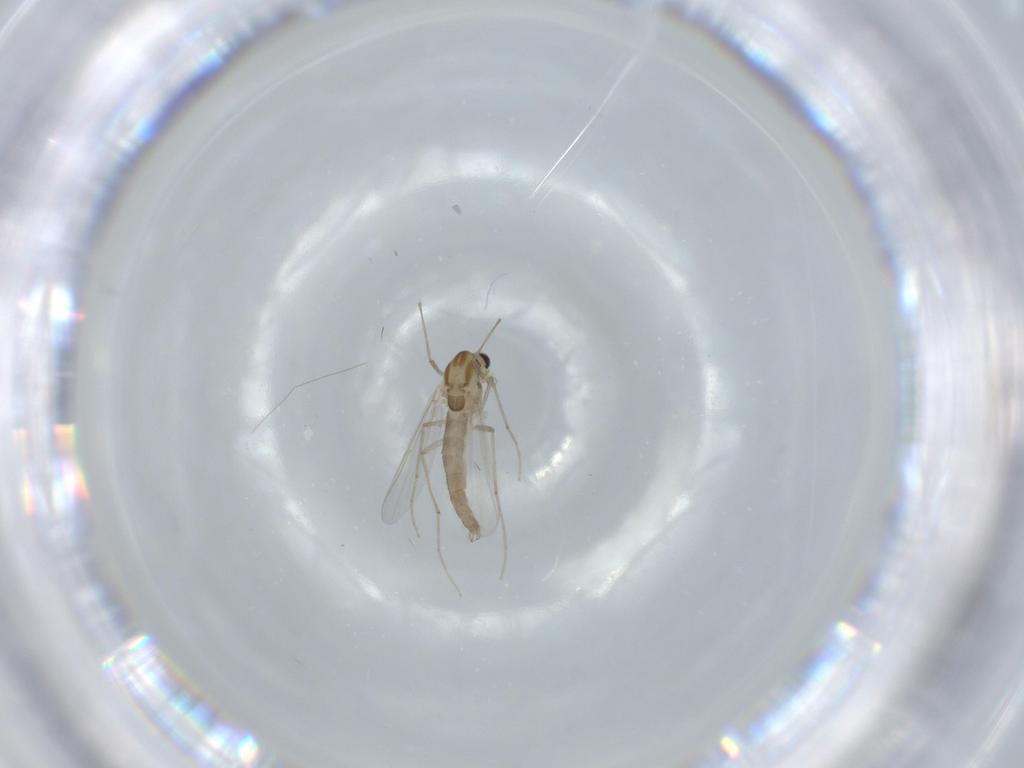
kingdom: Animalia
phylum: Arthropoda
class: Insecta
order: Diptera
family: Chironomidae
